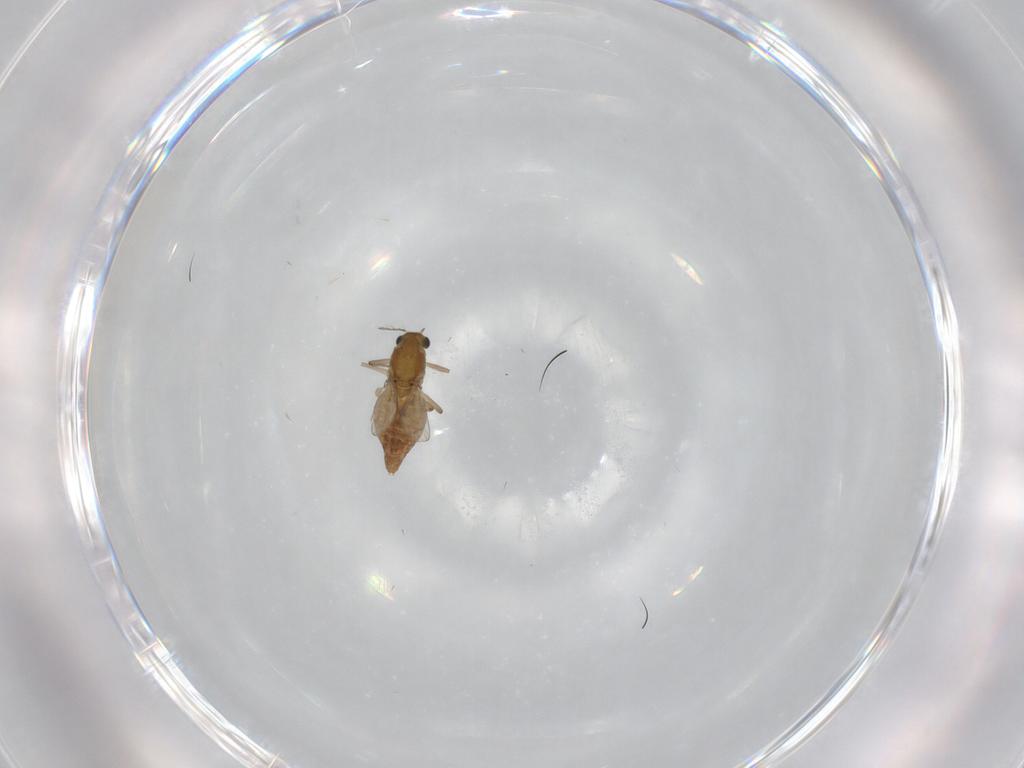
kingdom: Animalia
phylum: Arthropoda
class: Insecta
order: Diptera
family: Chironomidae
